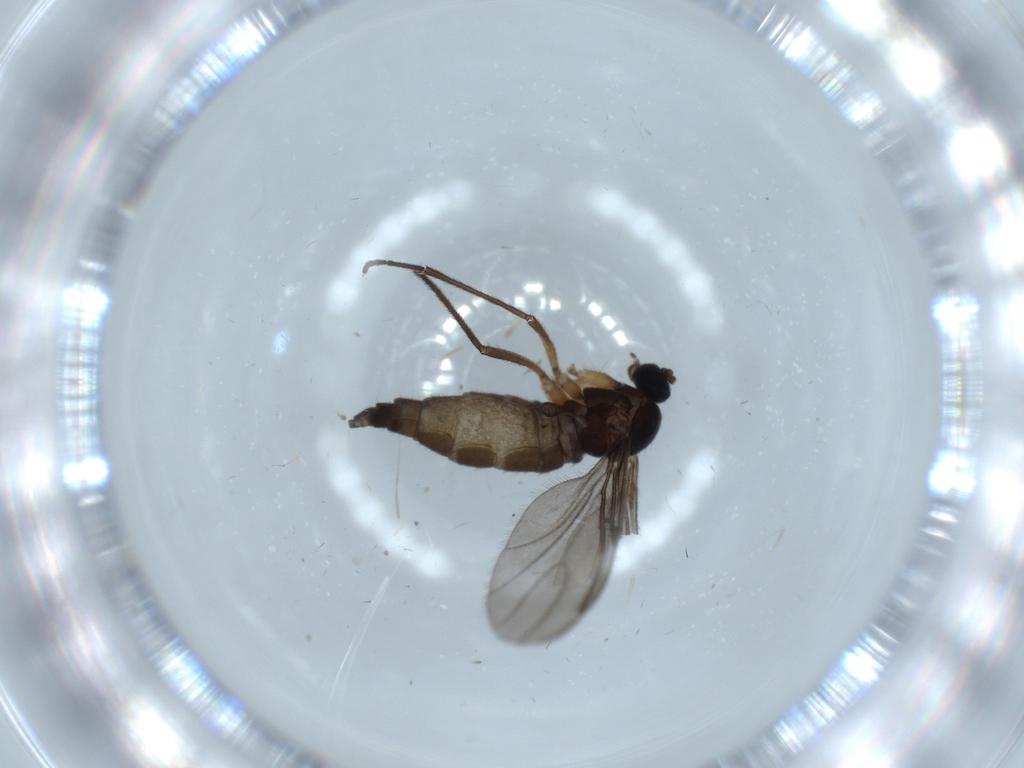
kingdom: Animalia
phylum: Arthropoda
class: Insecta
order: Diptera
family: Sciaridae
